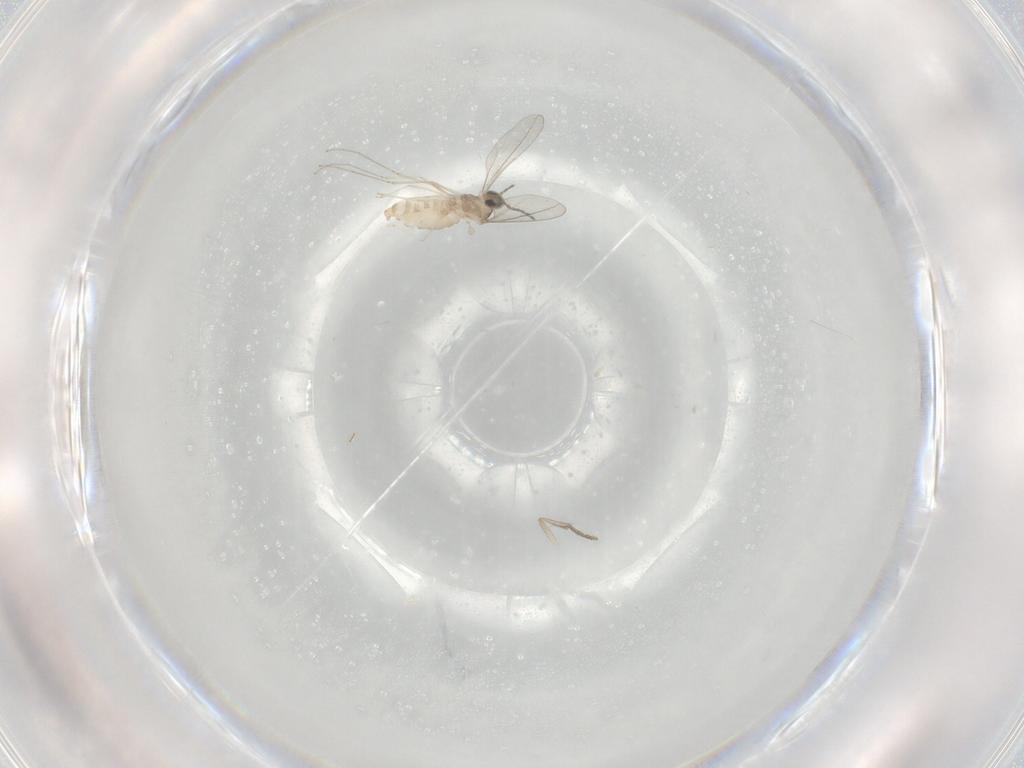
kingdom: Animalia
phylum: Arthropoda
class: Insecta
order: Diptera
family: Cecidomyiidae
